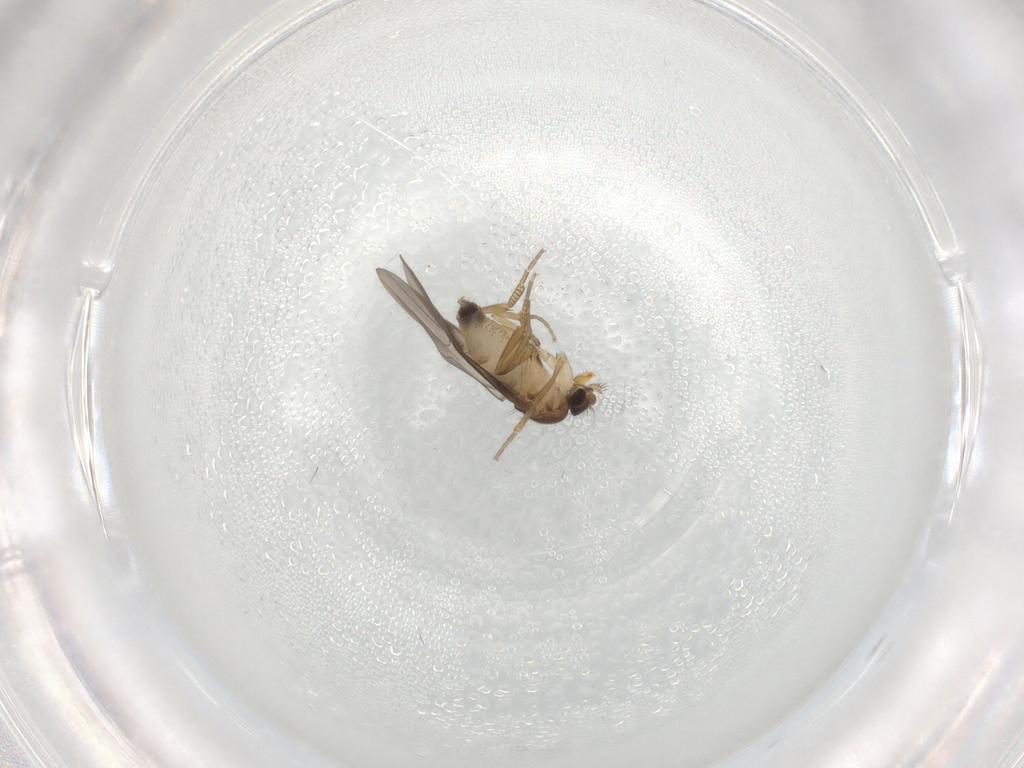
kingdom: Animalia
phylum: Arthropoda
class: Insecta
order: Diptera
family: Phoridae
